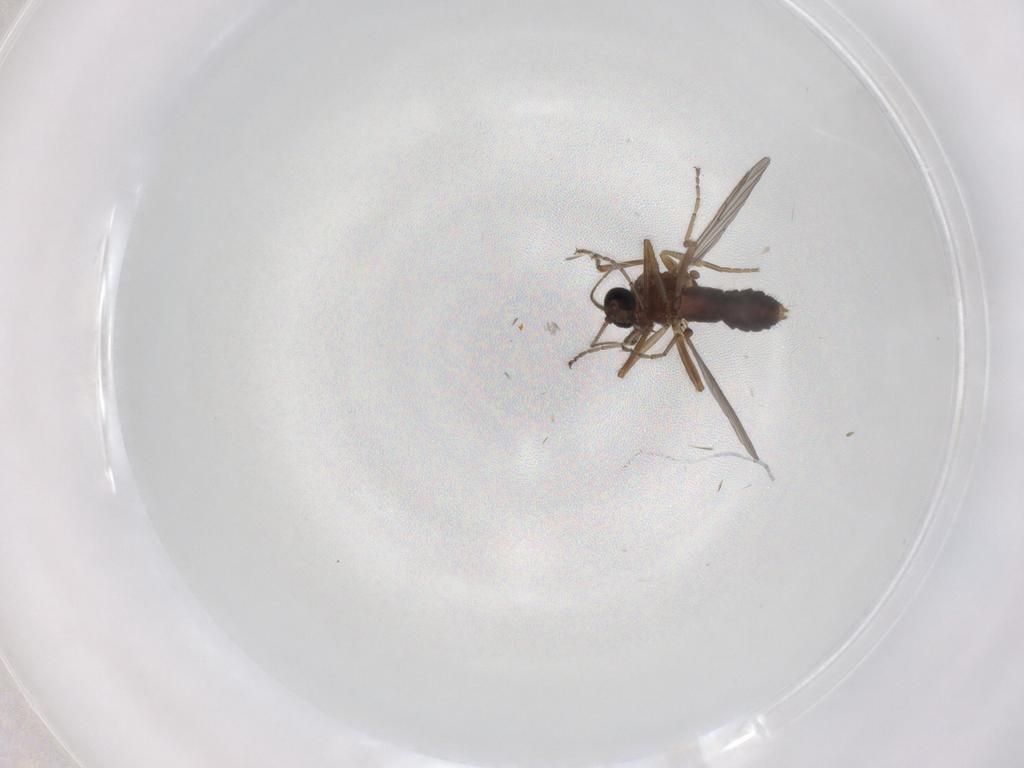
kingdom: Animalia
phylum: Arthropoda
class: Insecta
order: Diptera
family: Ceratopogonidae
